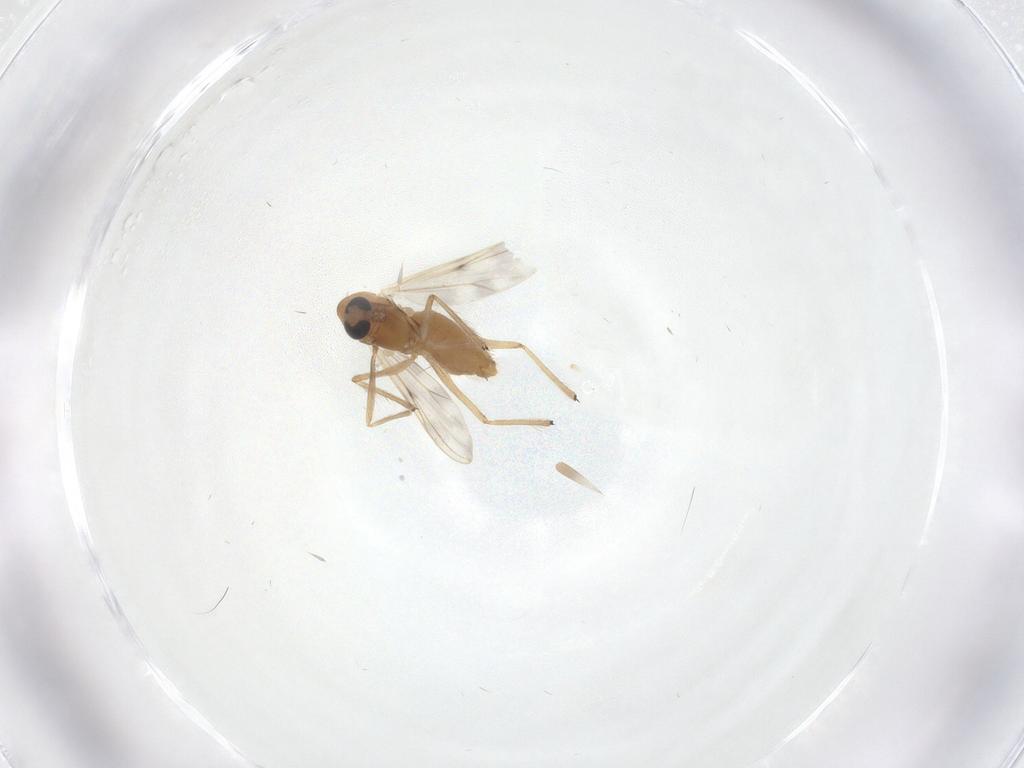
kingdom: Animalia
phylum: Arthropoda
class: Insecta
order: Diptera
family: Chironomidae
